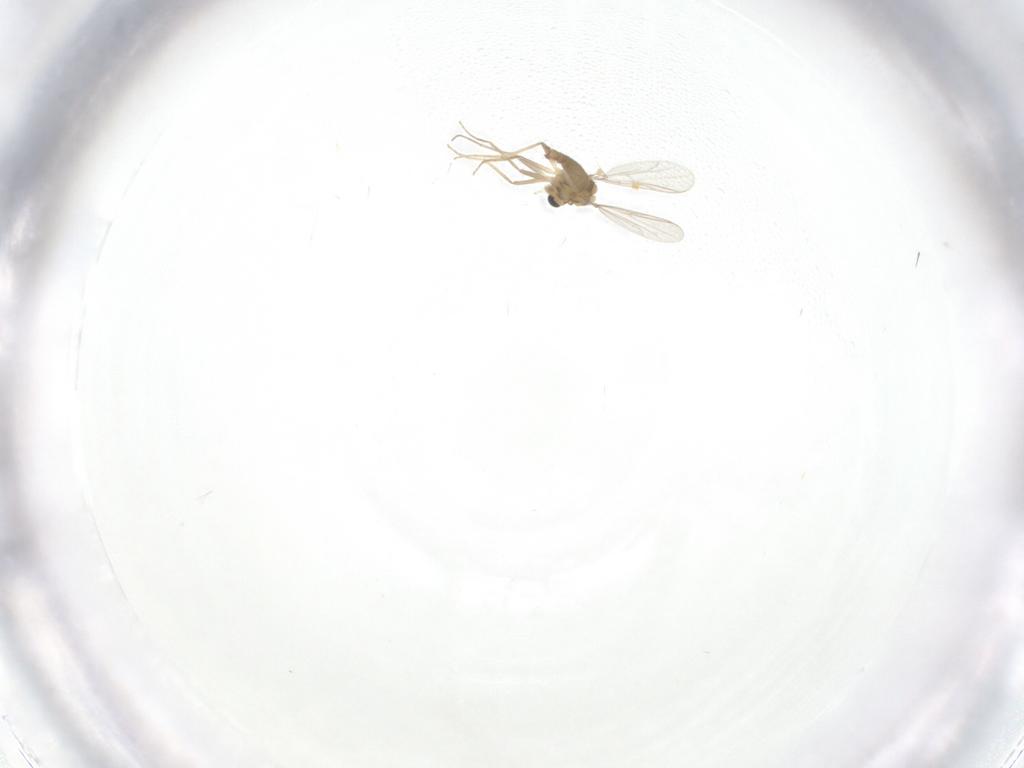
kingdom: Animalia
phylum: Arthropoda
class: Insecta
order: Diptera
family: Chironomidae
